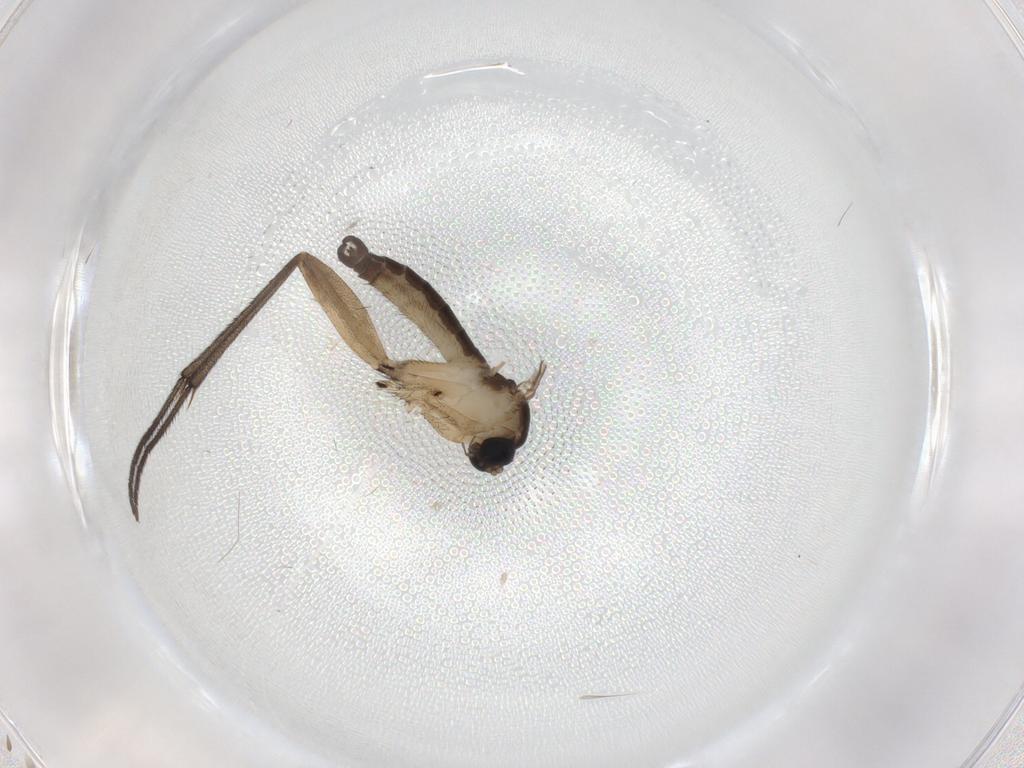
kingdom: Animalia
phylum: Arthropoda
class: Insecta
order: Diptera
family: Sciaridae
